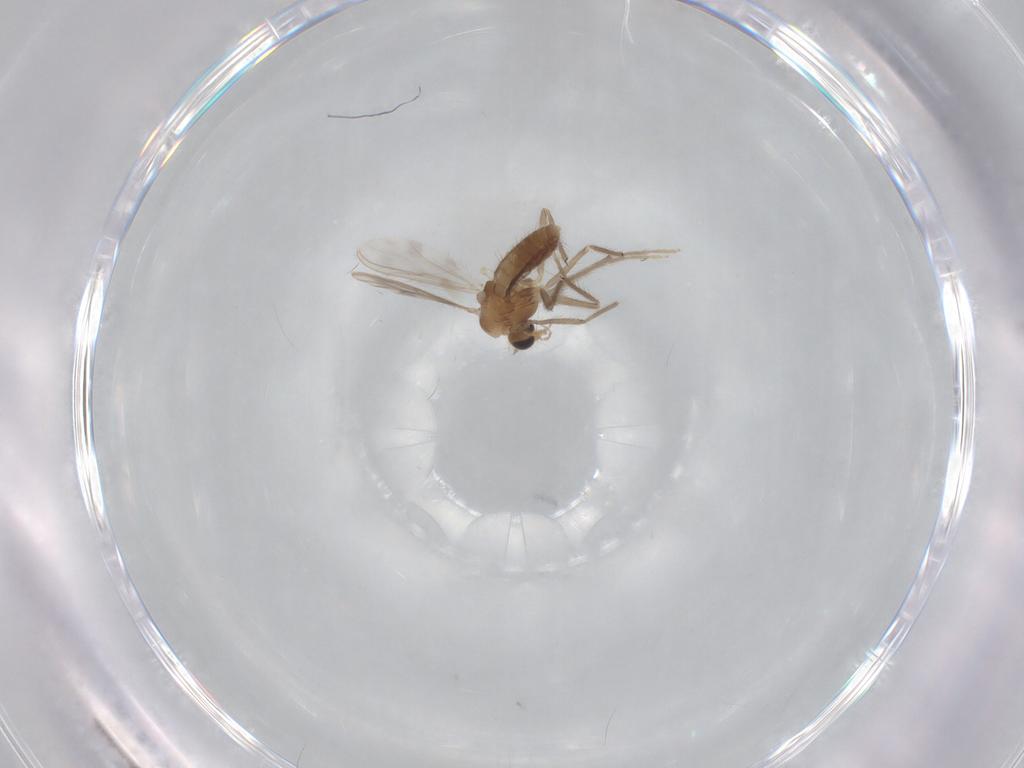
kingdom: Animalia
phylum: Arthropoda
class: Insecta
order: Diptera
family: Chironomidae
